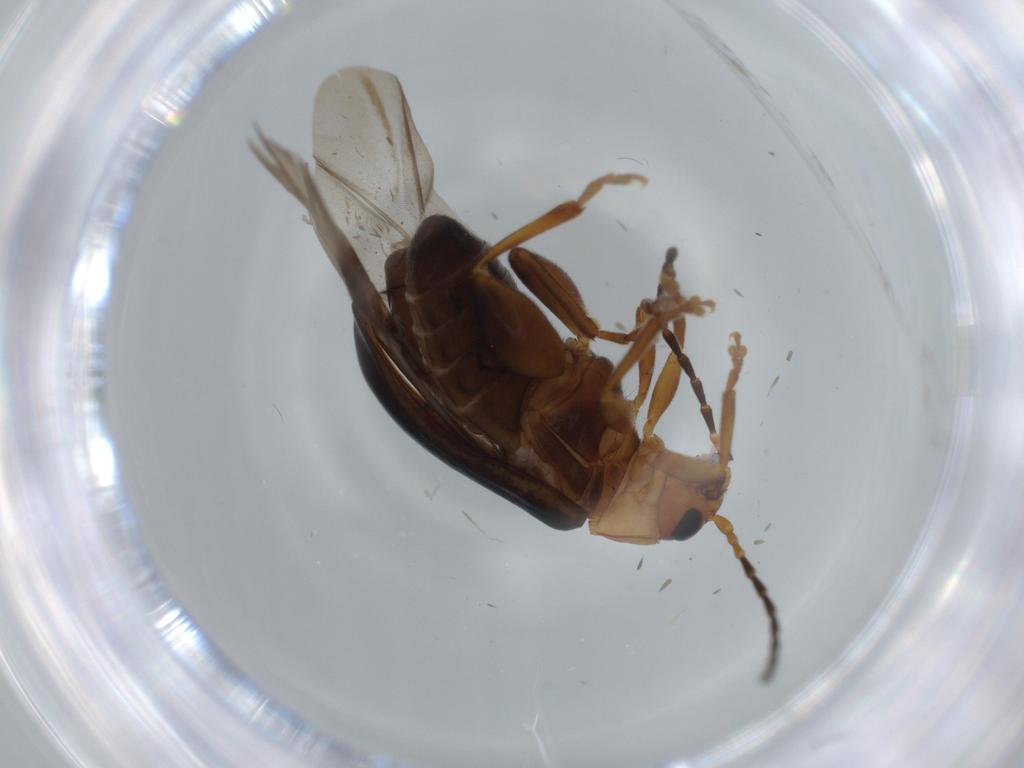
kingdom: Animalia
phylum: Arthropoda
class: Insecta
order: Coleoptera
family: Chrysomelidae
